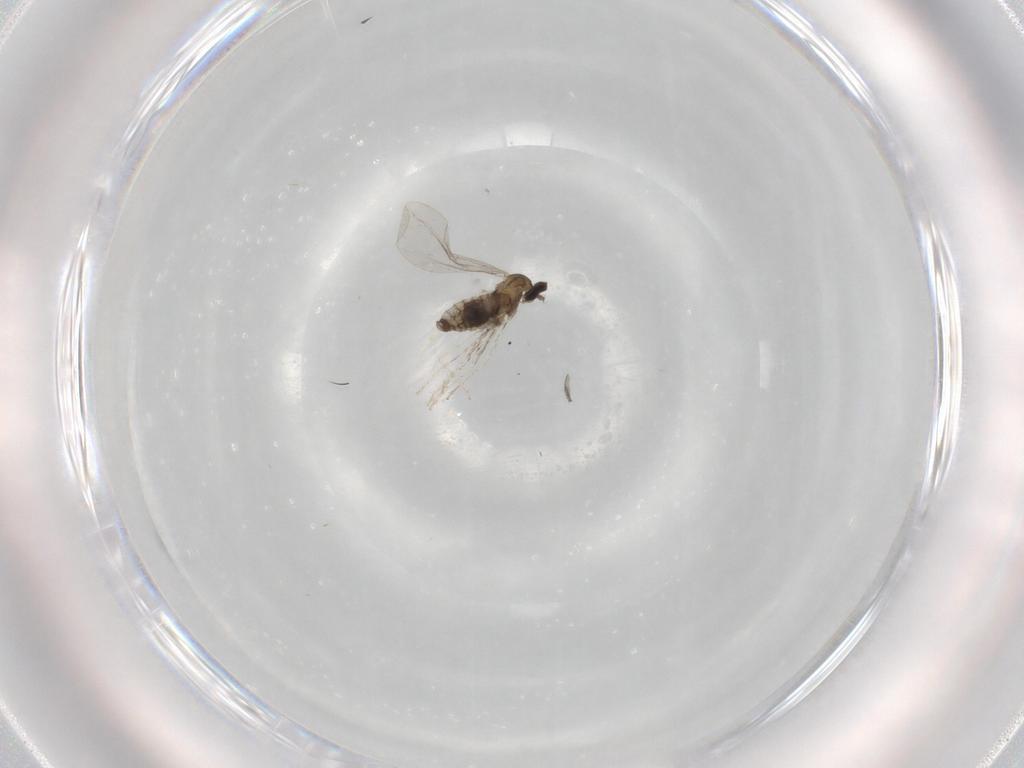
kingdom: Animalia
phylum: Arthropoda
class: Insecta
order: Diptera
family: Cecidomyiidae
